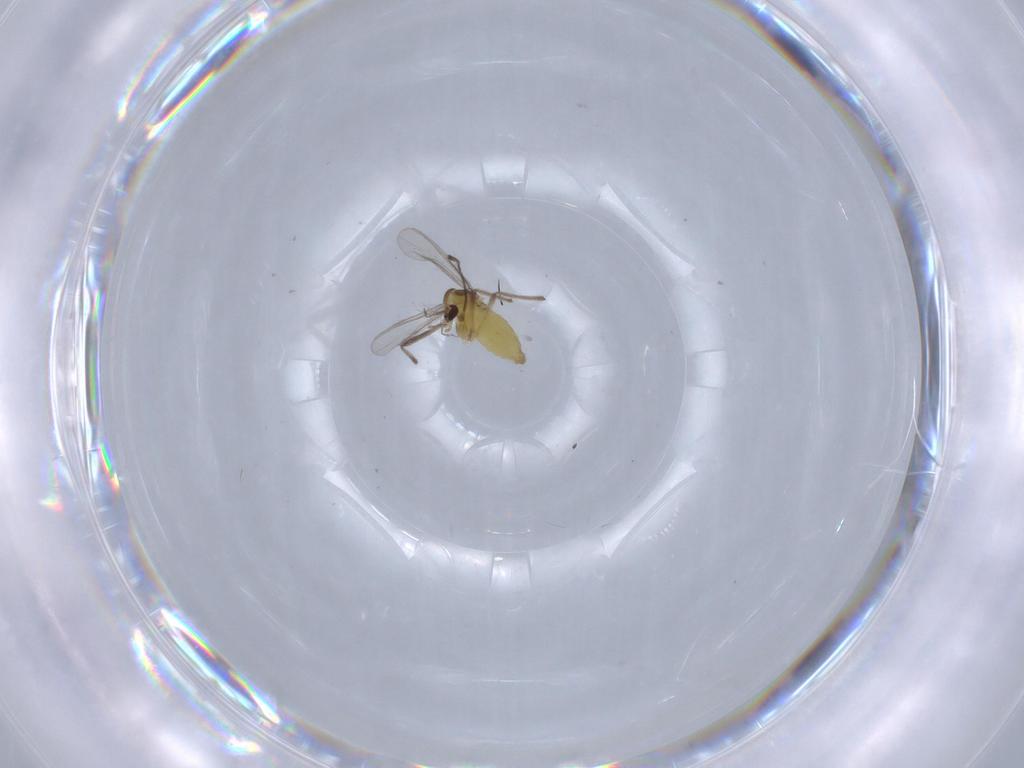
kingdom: Animalia
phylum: Arthropoda
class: Insecta
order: Diptera
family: Chironomidae
